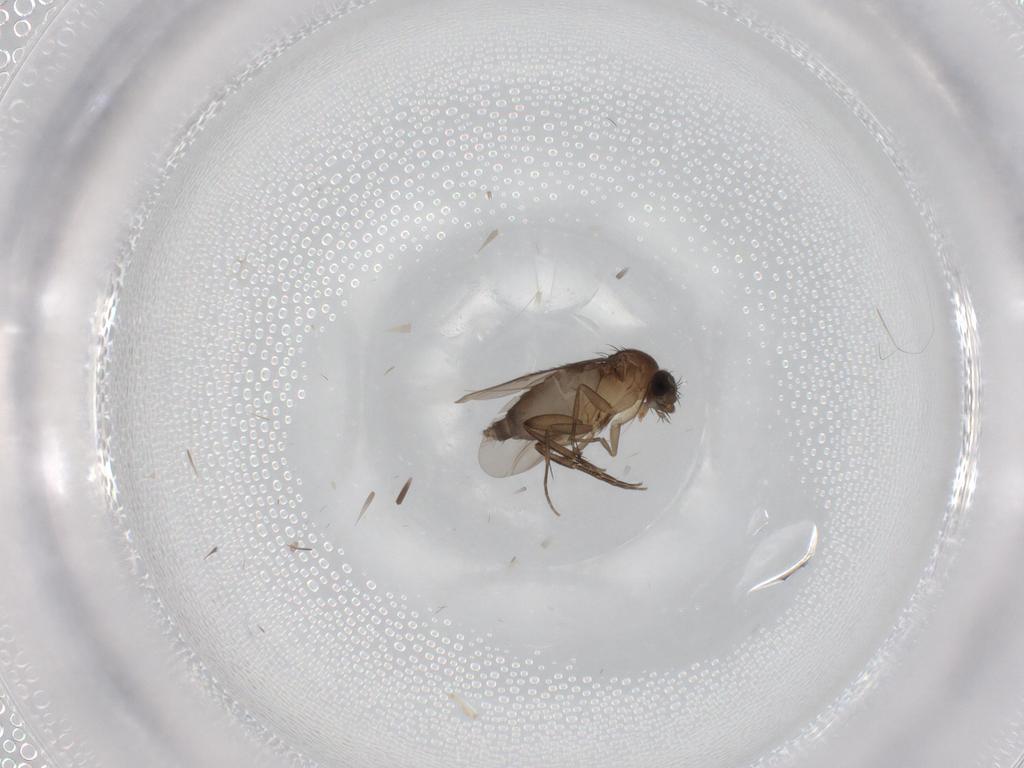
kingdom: Animalia
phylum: Arthropoda
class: Insecta
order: Diptera
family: Phoridae
